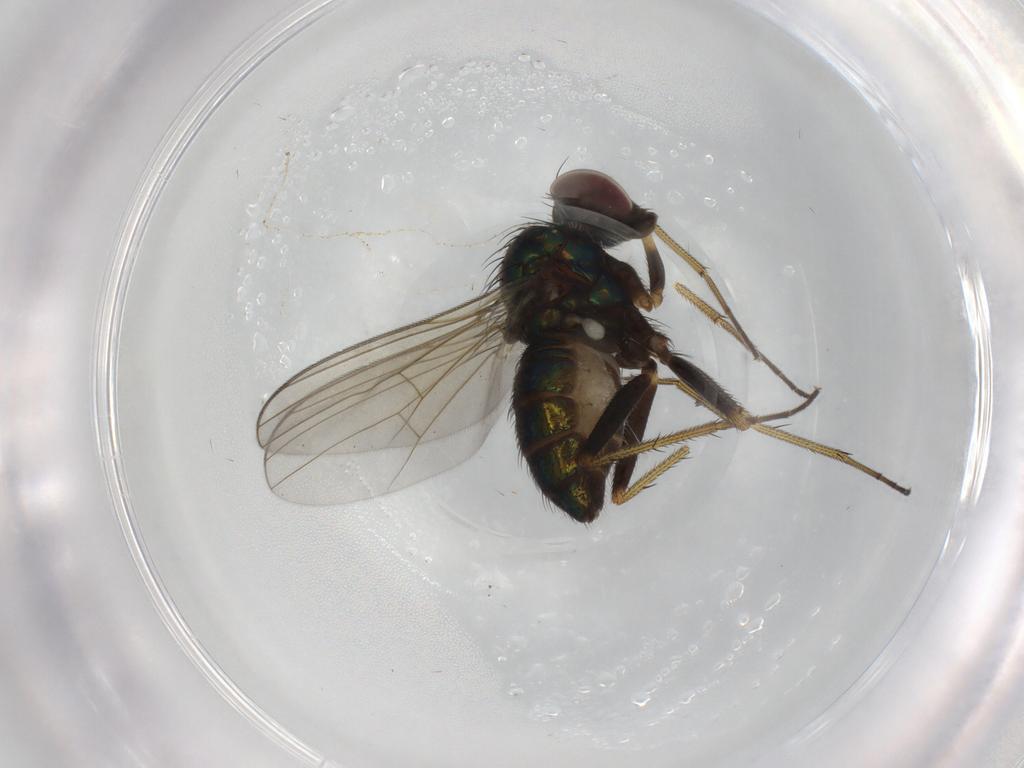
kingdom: Animalia
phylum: Arthropoda
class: Insecta
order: Diptera
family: Dolichopodidae
